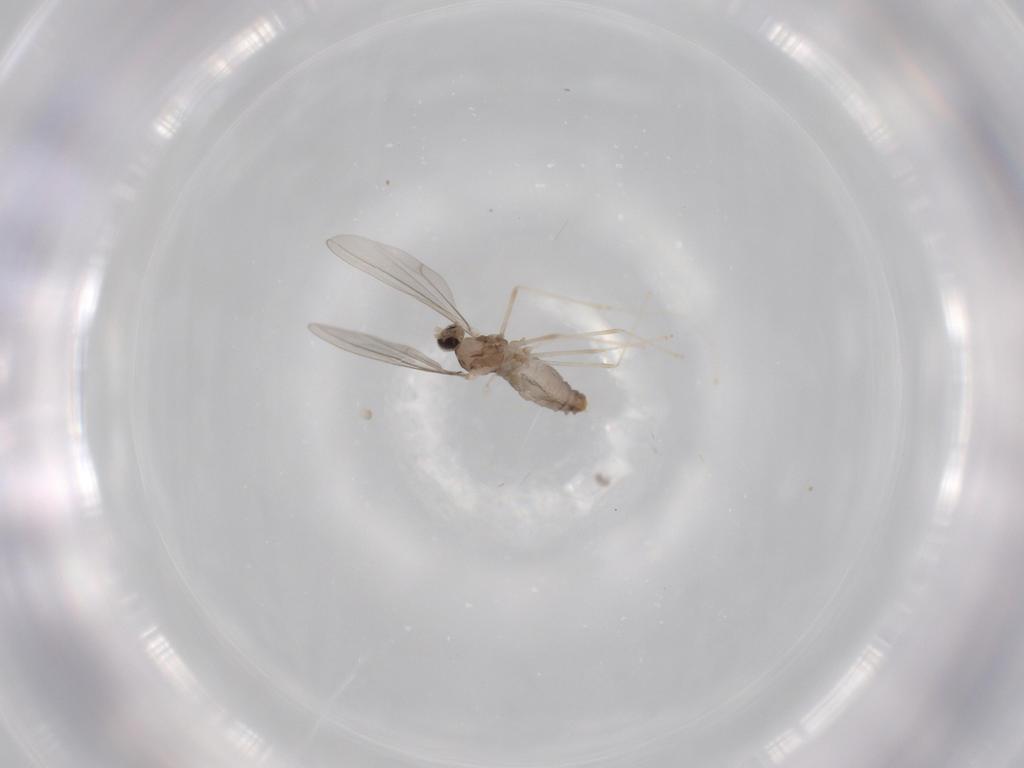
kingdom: Animalia
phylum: Arthropoda
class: Insecta
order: Diptera
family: Cecidomyiidae
